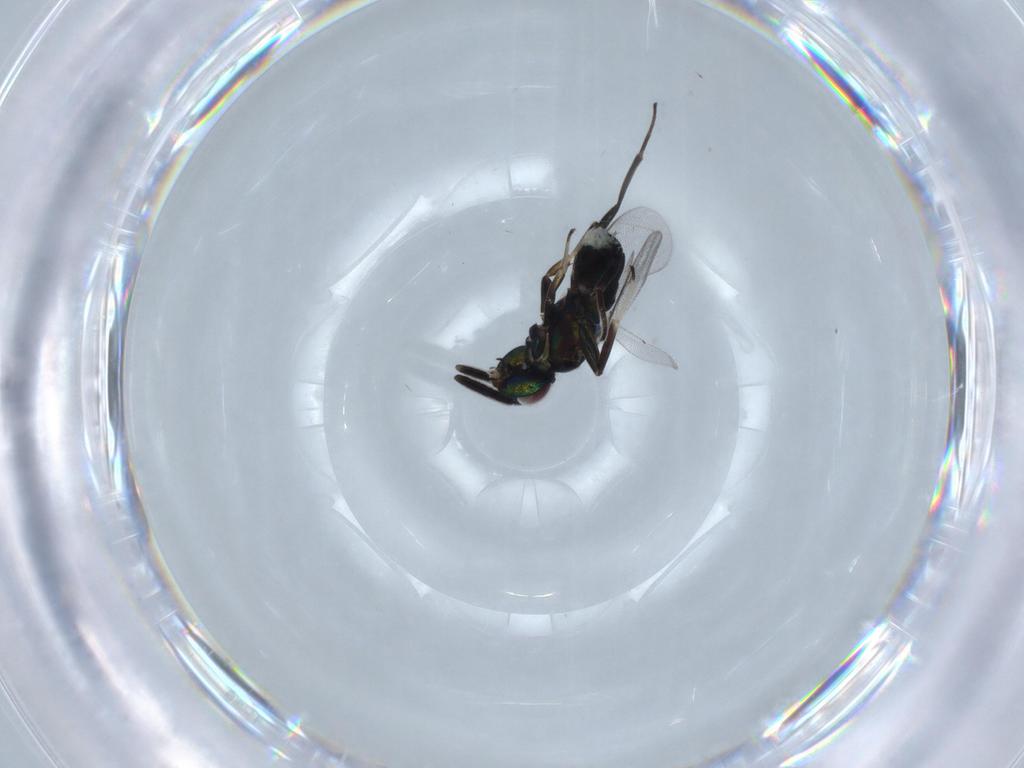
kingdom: Animalia
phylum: Arthropoda
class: Insecta
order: Hymenoptera
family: Eupelmidae
